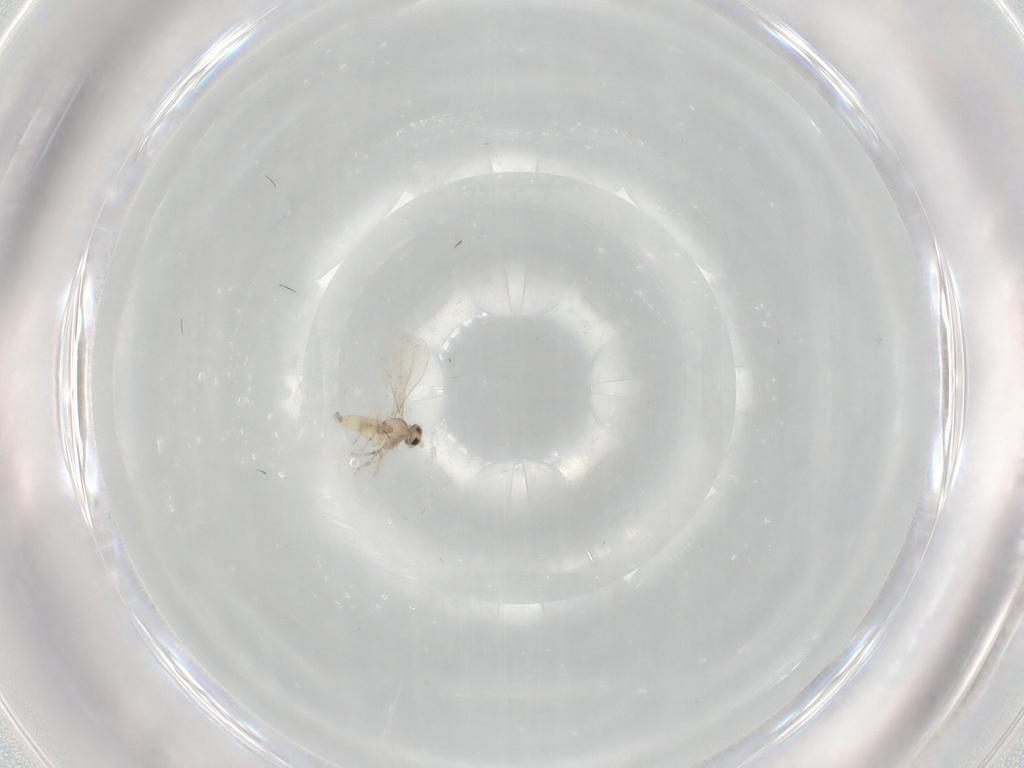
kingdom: Animalia
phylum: Arthropoda
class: Insecta
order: Diptera
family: Cecidomyiidae
